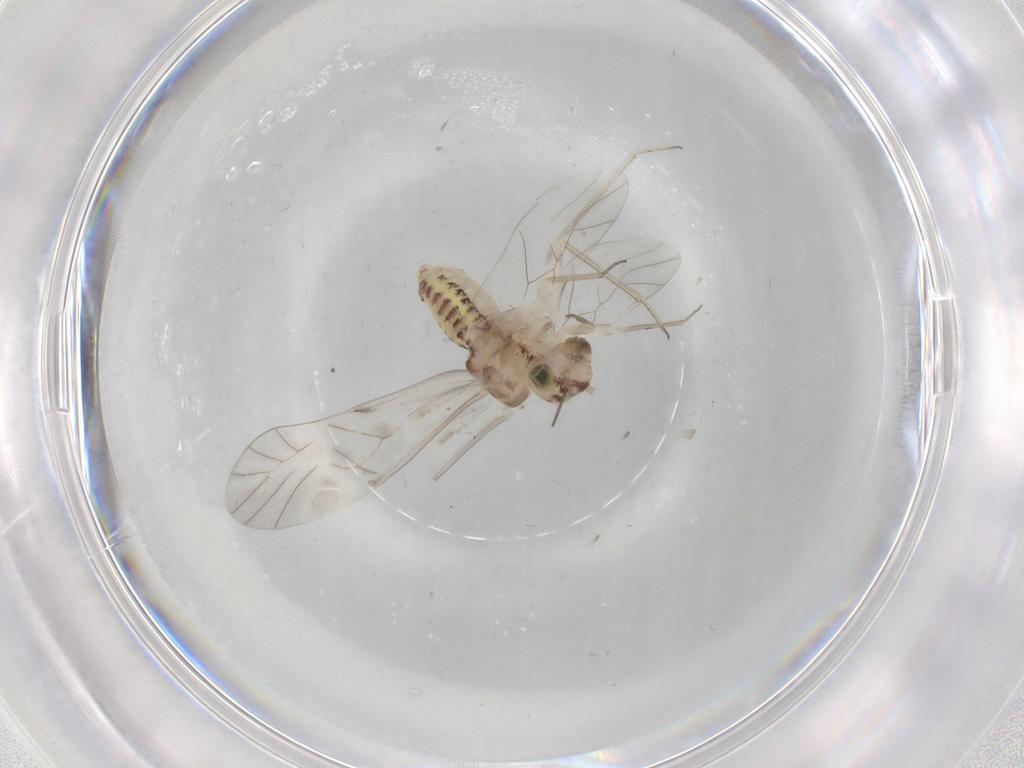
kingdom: Animalia
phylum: Arthropoda
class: Insecta
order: Psocodea
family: Psocidae
